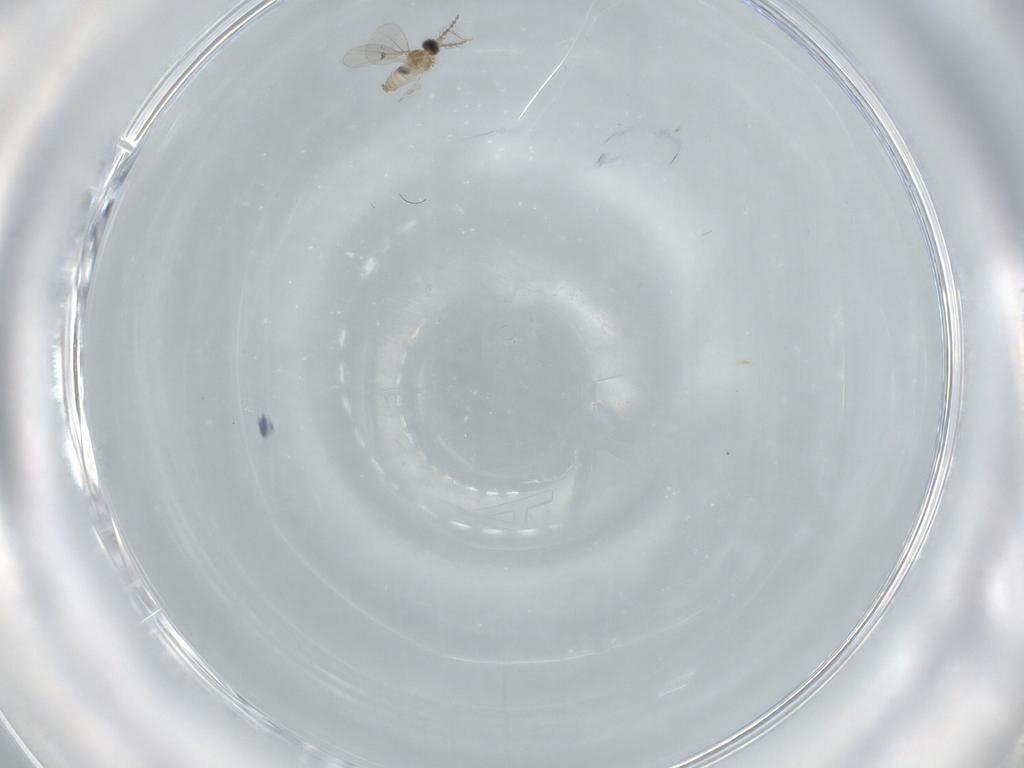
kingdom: Animalia
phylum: Arthropoda
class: Insecta
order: Diptera
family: Cecidomyiidae
